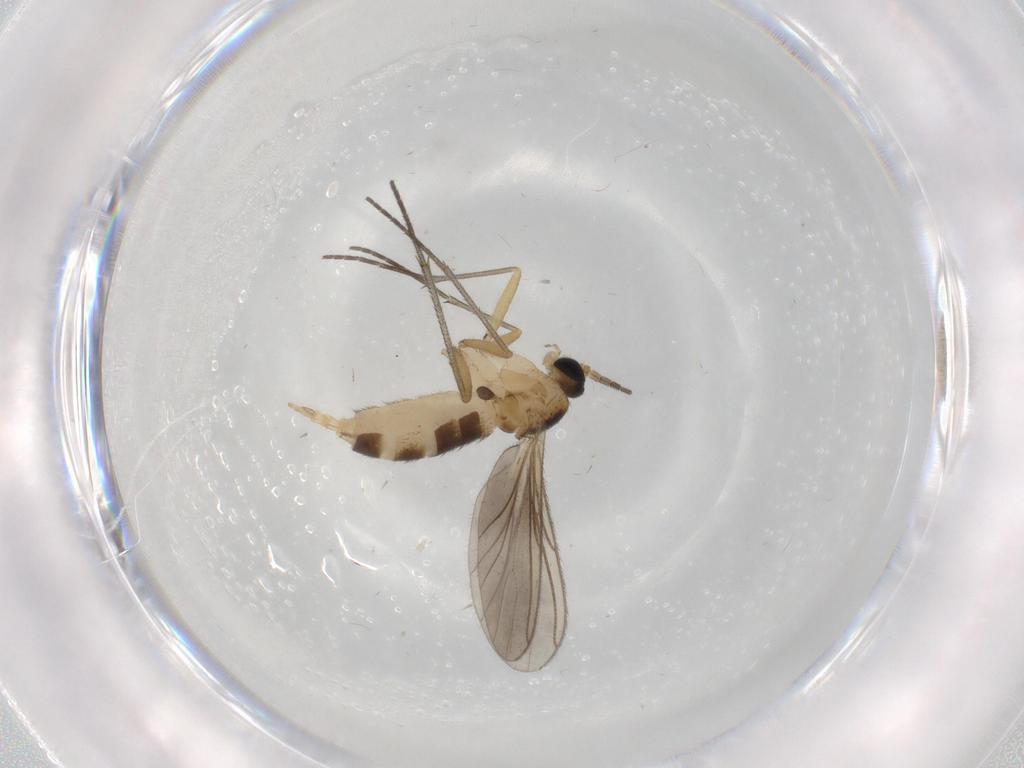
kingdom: Animalia
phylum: Arthropoda
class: Insecta
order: Diptera
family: Sciaridae
